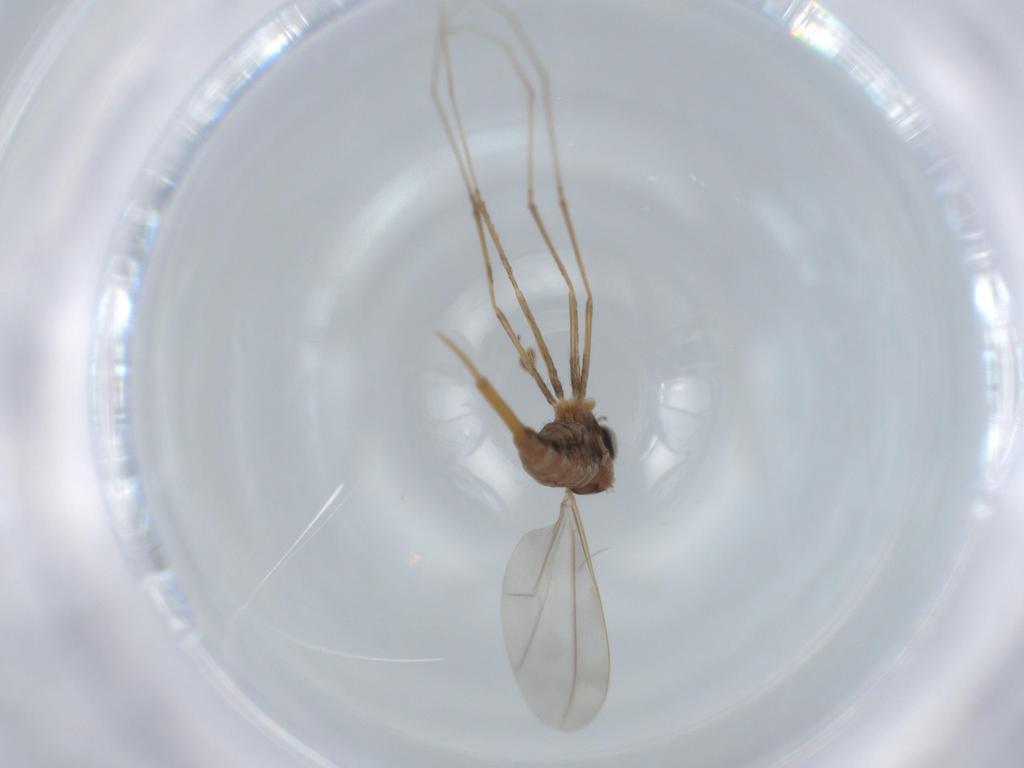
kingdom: Animalia
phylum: Arthropoda
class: Insecta
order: Diptera
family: Cecidomyiidae
